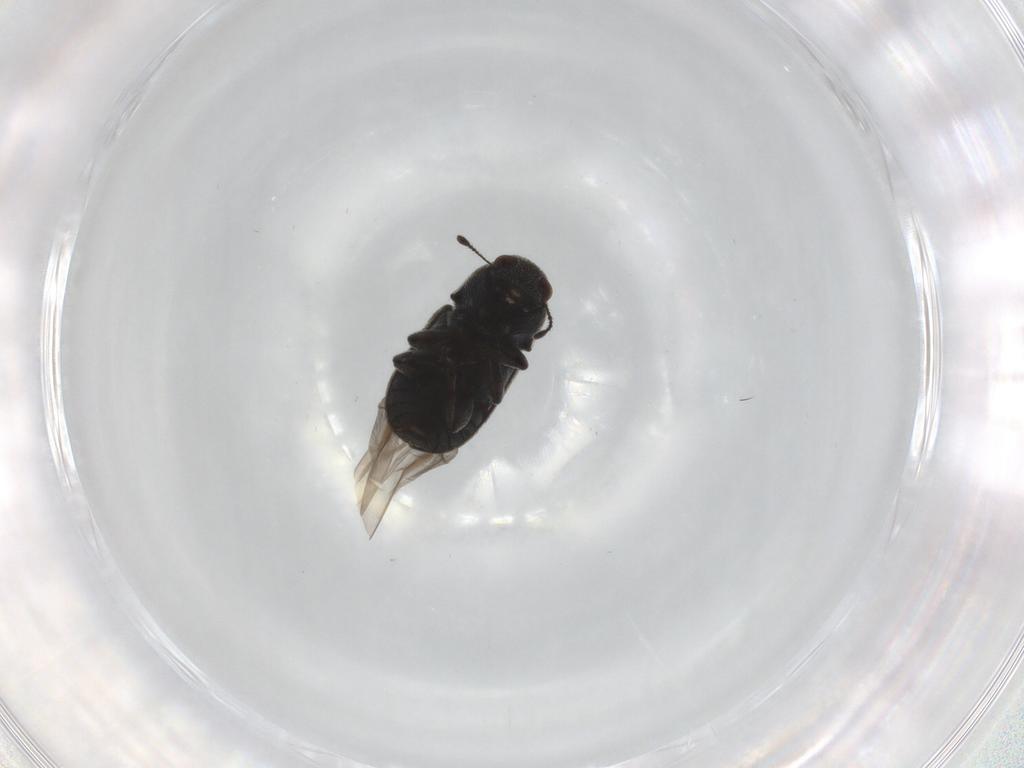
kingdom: Animalia
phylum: Arthropoda
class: Insecta
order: Coleoptera
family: Cerambycidae
